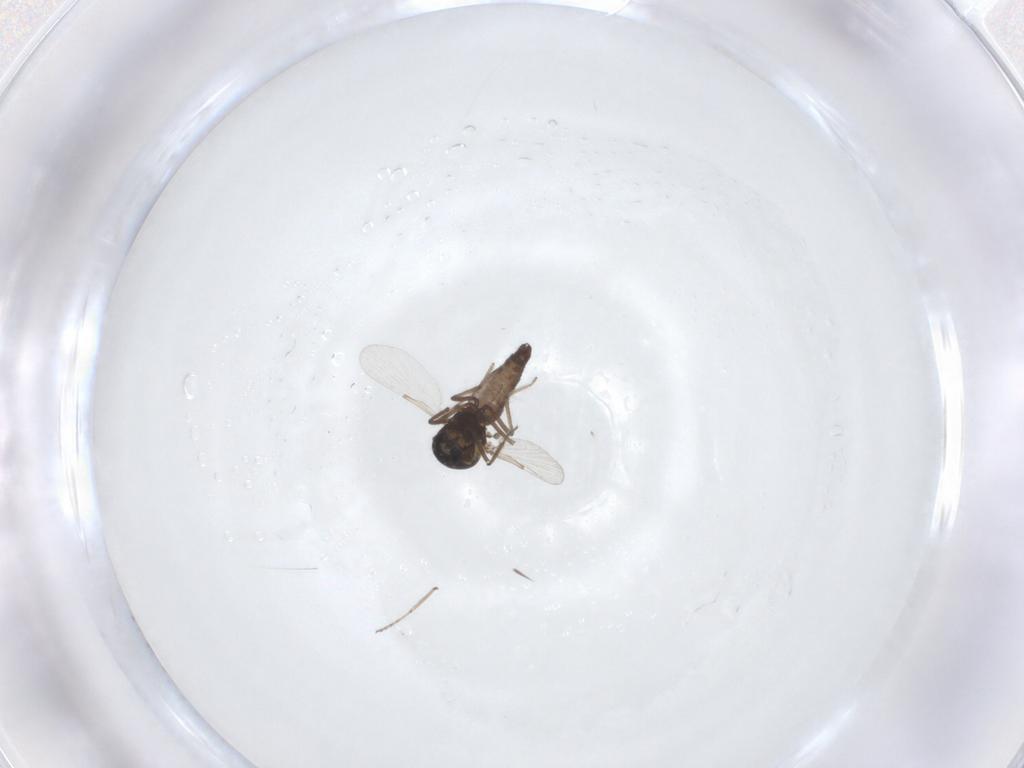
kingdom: Animalia
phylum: Arthropoda
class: Insecta
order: Diptera
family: Ceratopogonidae
